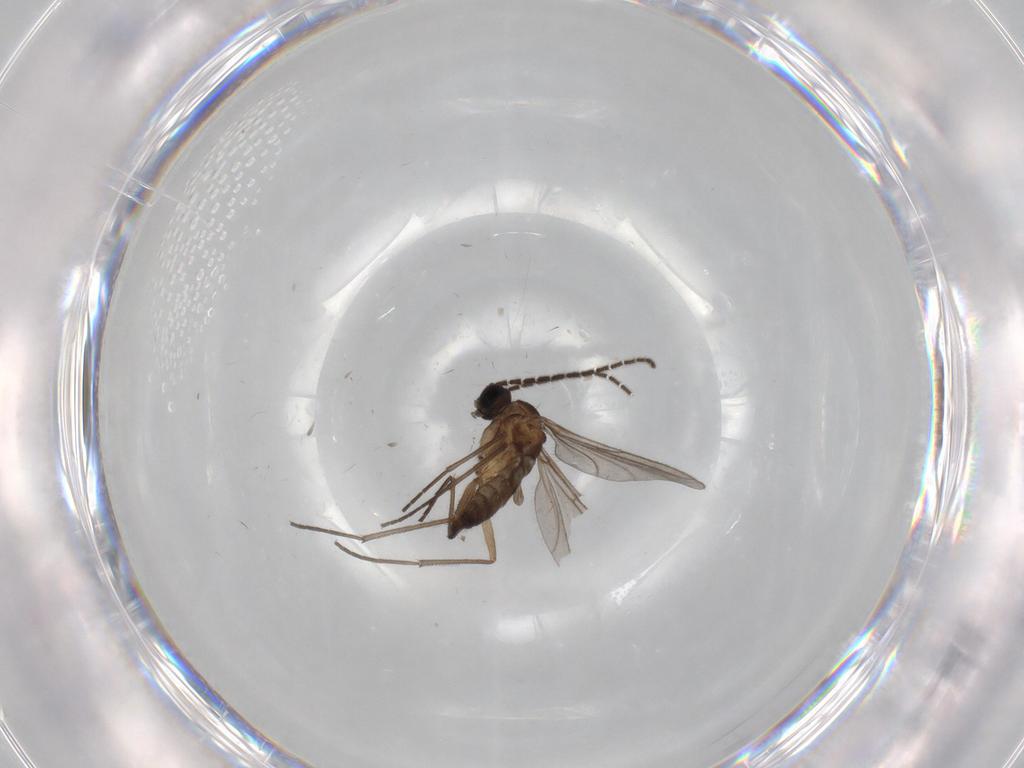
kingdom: Animalia
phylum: Arthropoda
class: Insecta
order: Diptera
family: Sciaridae
